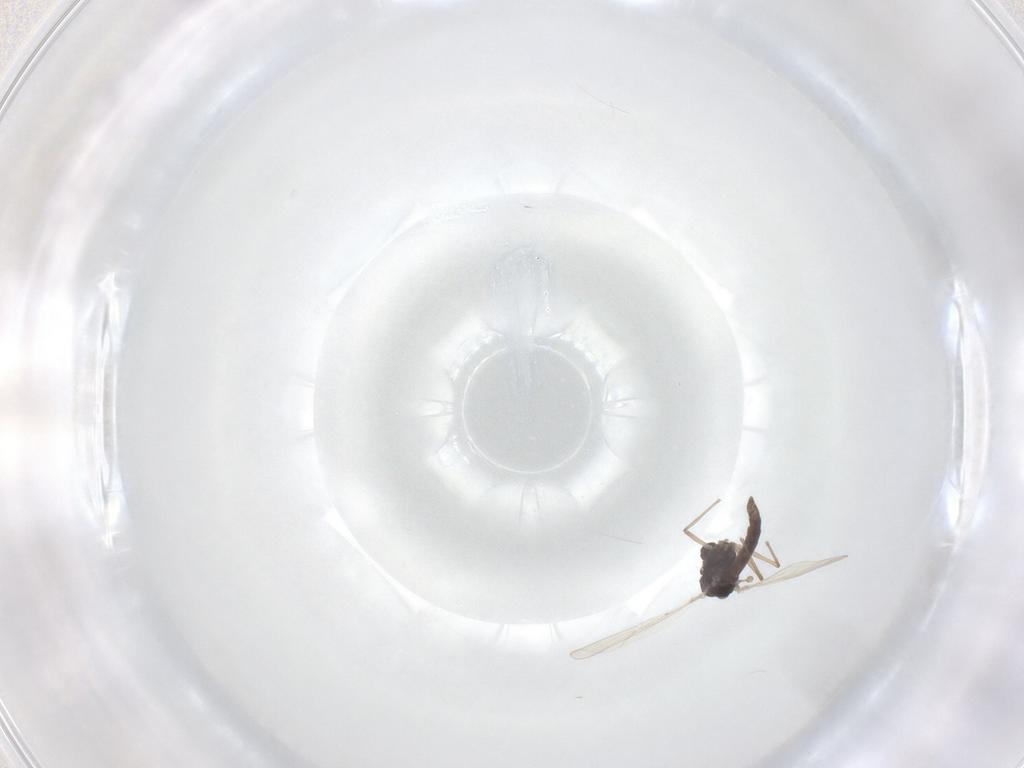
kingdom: Animalia
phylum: Arthropoda
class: Insecta
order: Diptera
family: Chironomidae
